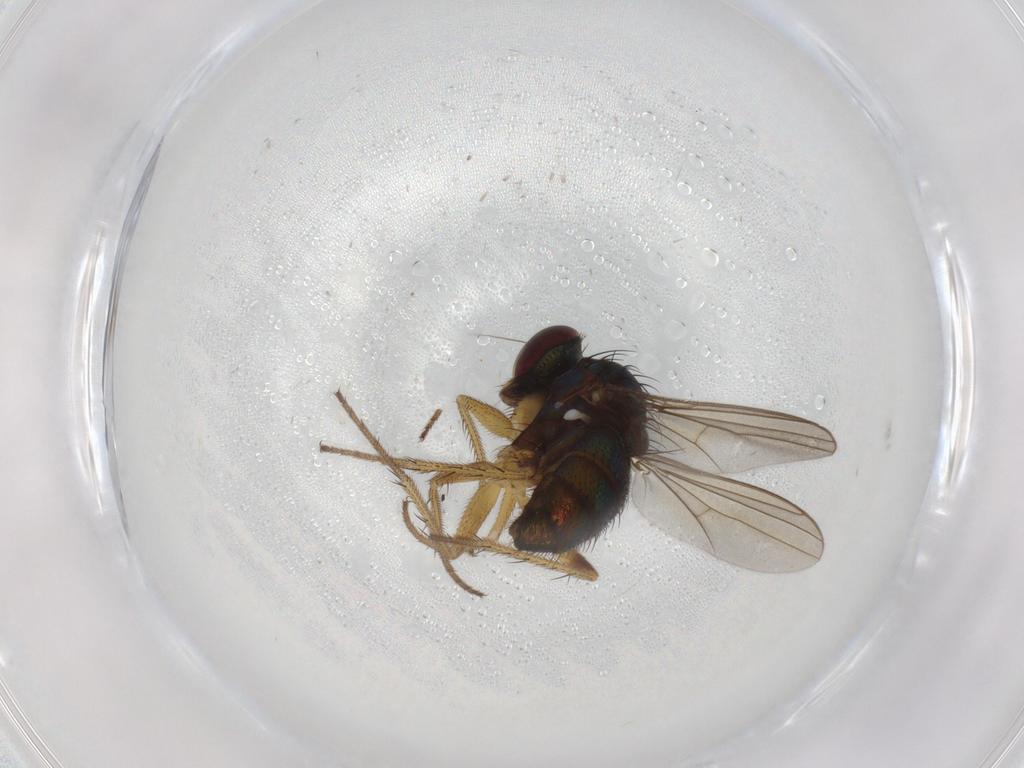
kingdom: Animalia
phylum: Arthropoda
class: Insecta
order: Diptera
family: Dolichopodidae
